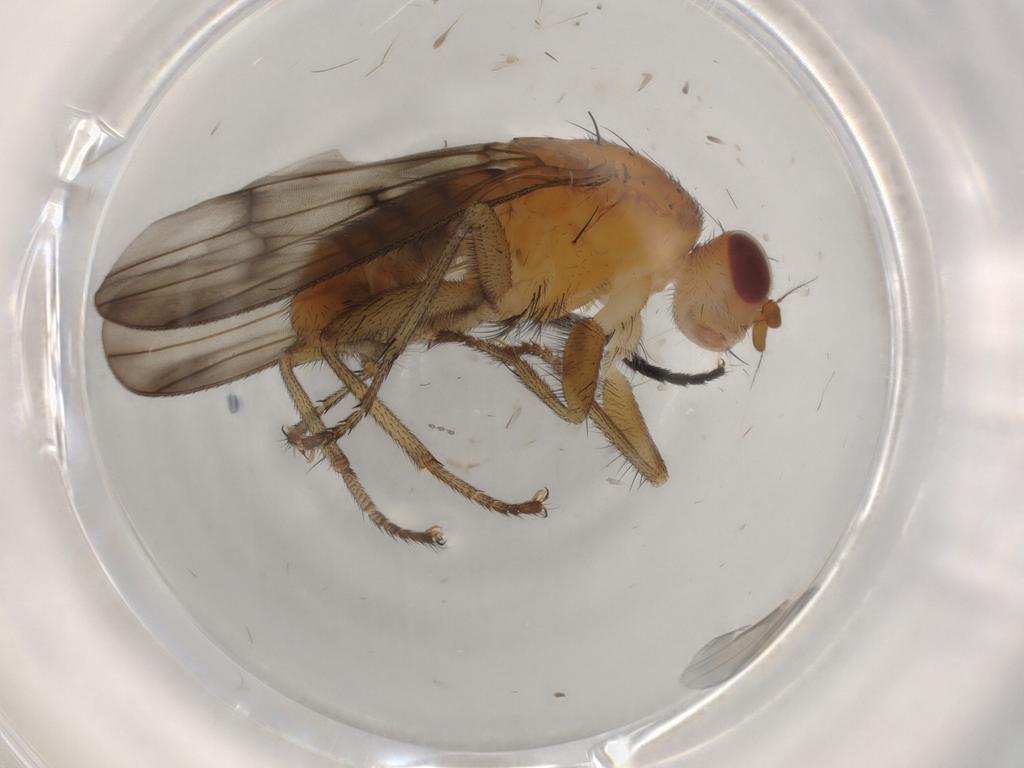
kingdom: Animalia
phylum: Arthropoda
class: Insecta
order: Diptera
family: Heleomyzidae
